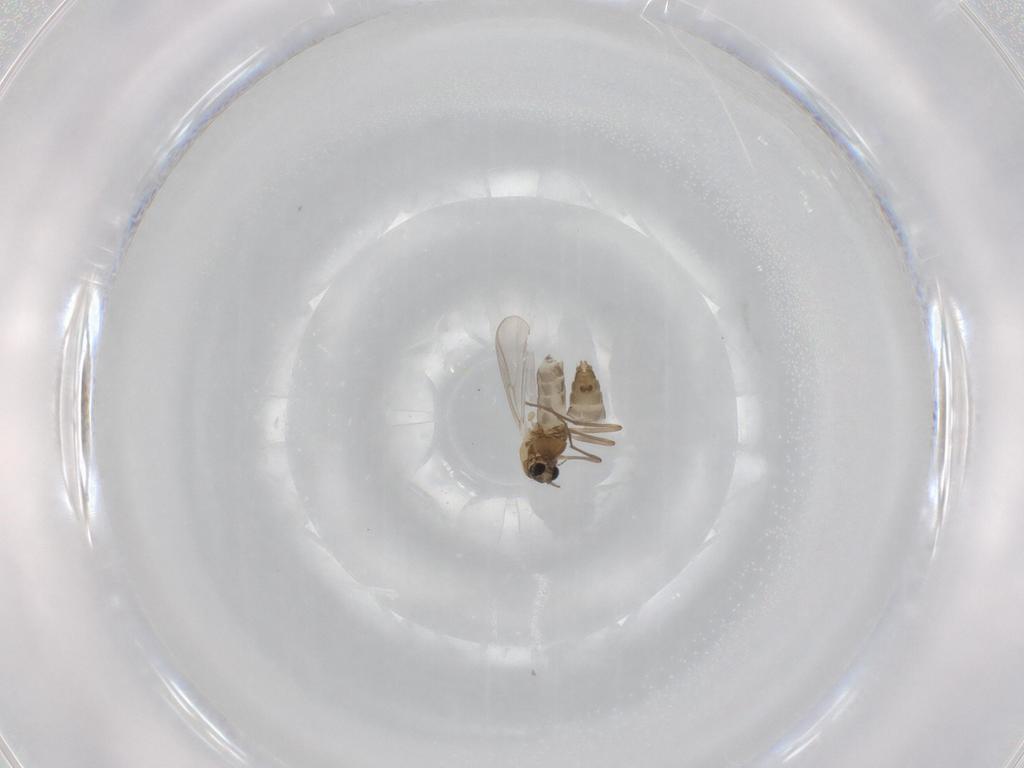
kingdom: Animalia
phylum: Arthropoda
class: Insecta
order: Diptera
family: Chironomidae
